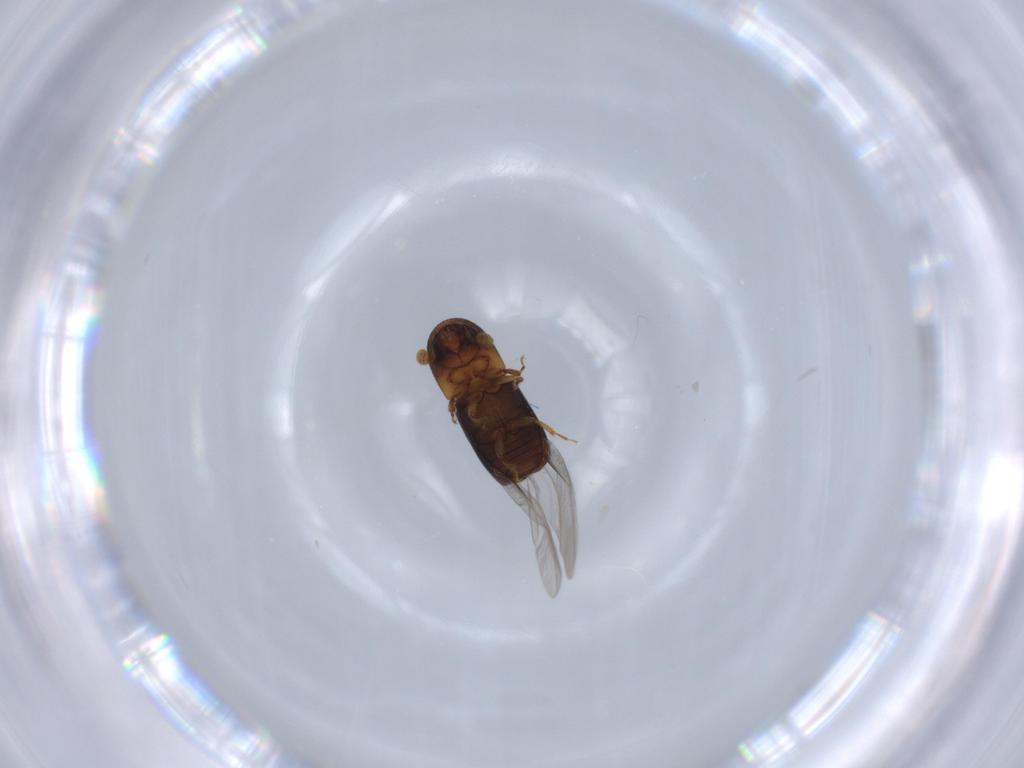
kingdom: Animalia
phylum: Arthropoda
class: Insecta
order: Coleoptera
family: Curculionidae
